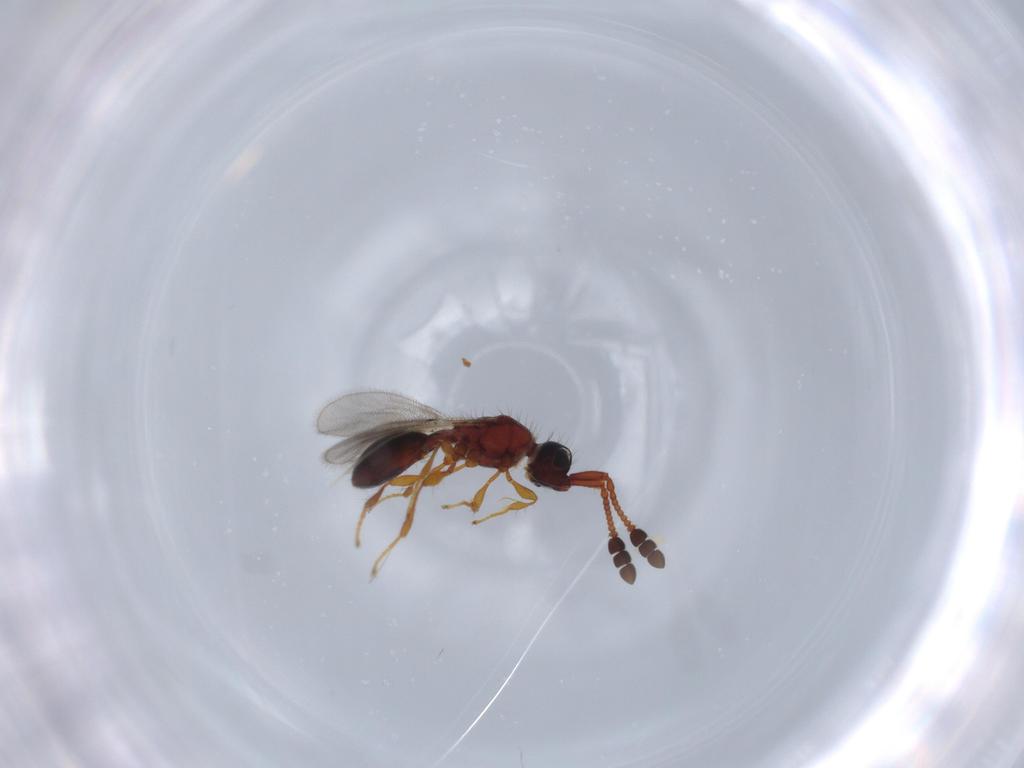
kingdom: Animalia
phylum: Arthropoda
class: Insecta
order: Hymenoptera
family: Diapriidae
